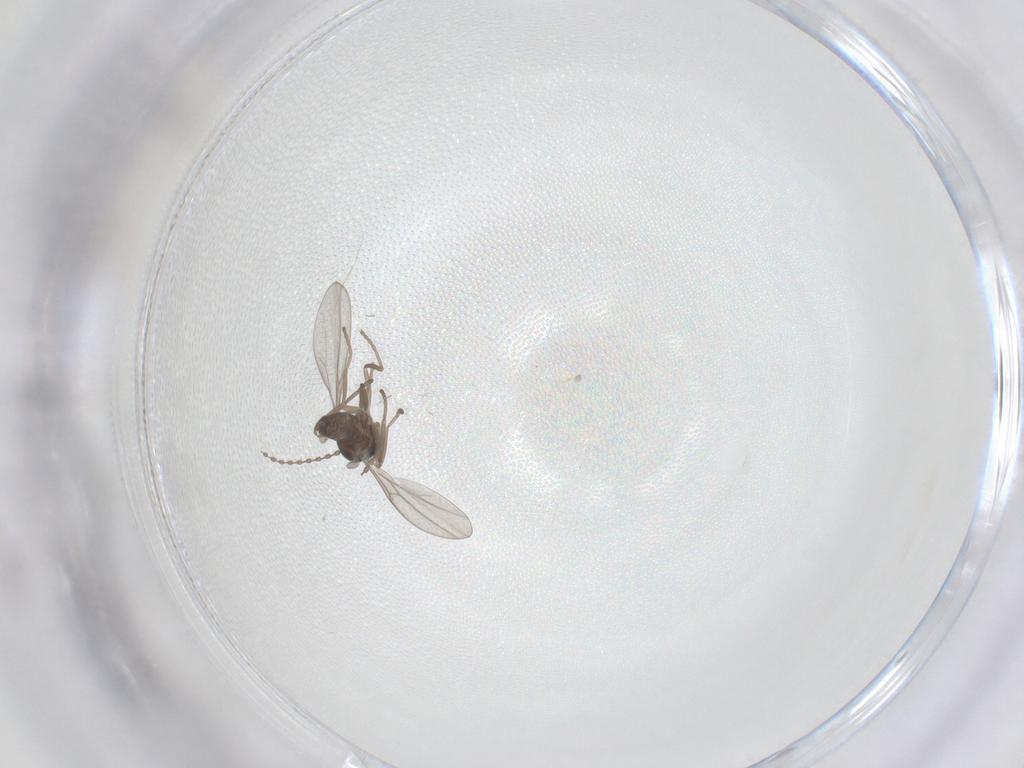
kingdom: Animalia
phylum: Arthropoda
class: Insecta
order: Diptera
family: Cecidomyiidae
